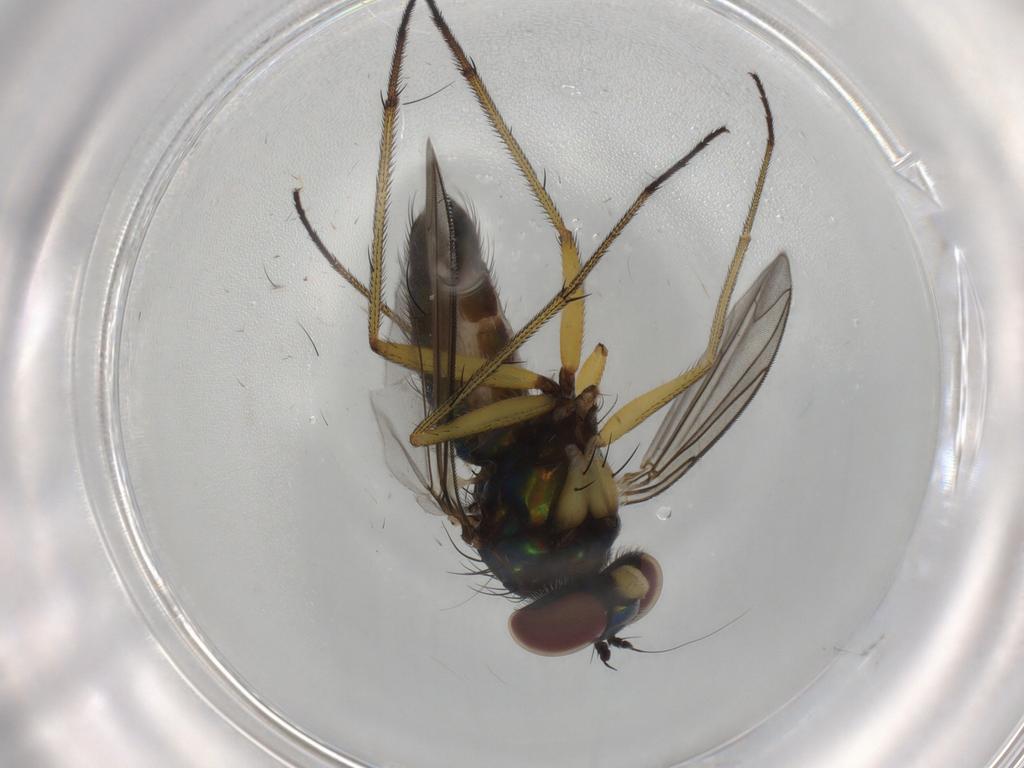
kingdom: Animalia
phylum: Arthropoda
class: Insecta
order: Diptera
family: Dolichopodidae
